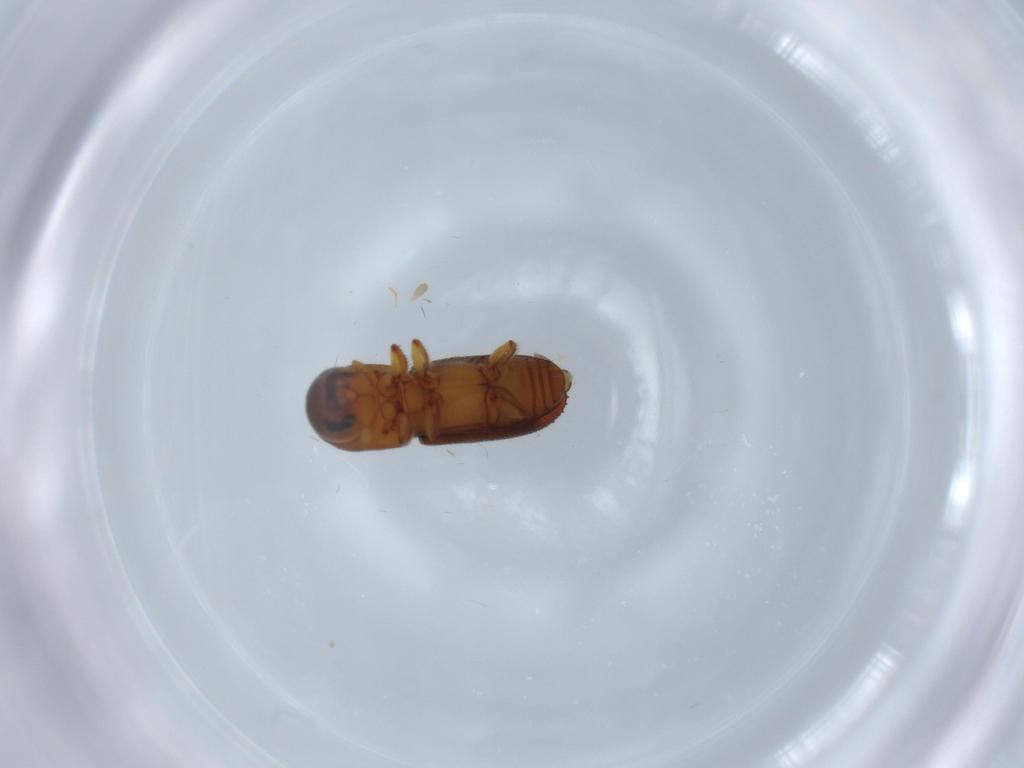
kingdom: Animalia
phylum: Arthropoda
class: Insecta
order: Coleoptera
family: Curculionidae
